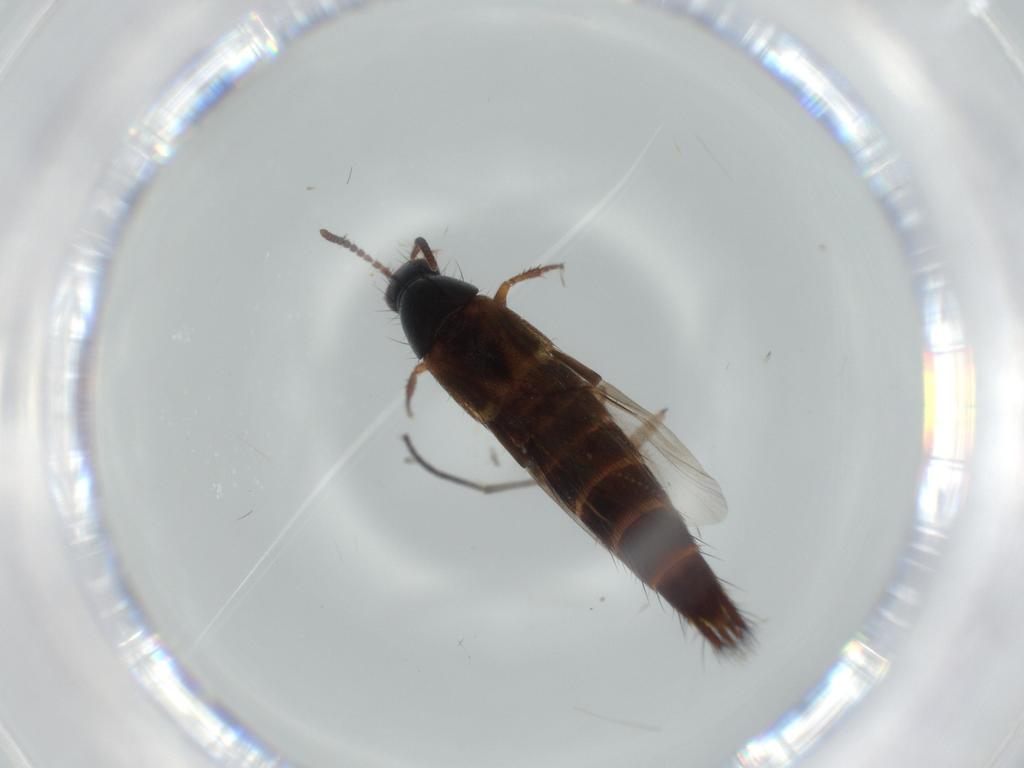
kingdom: Animalia
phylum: Arthropoda
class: Insecta
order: Coleoptera
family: Staphylinidae
